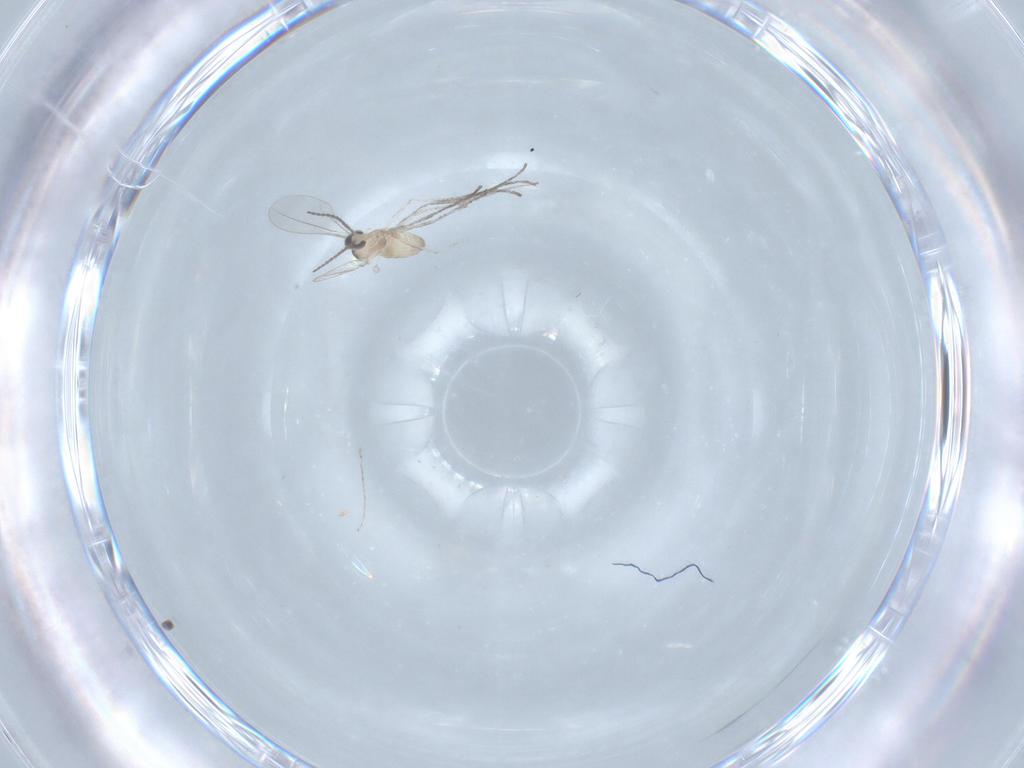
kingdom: Animalia
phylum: Arthropoda
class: Insecta
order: Diptera
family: Cecidomyiidae
